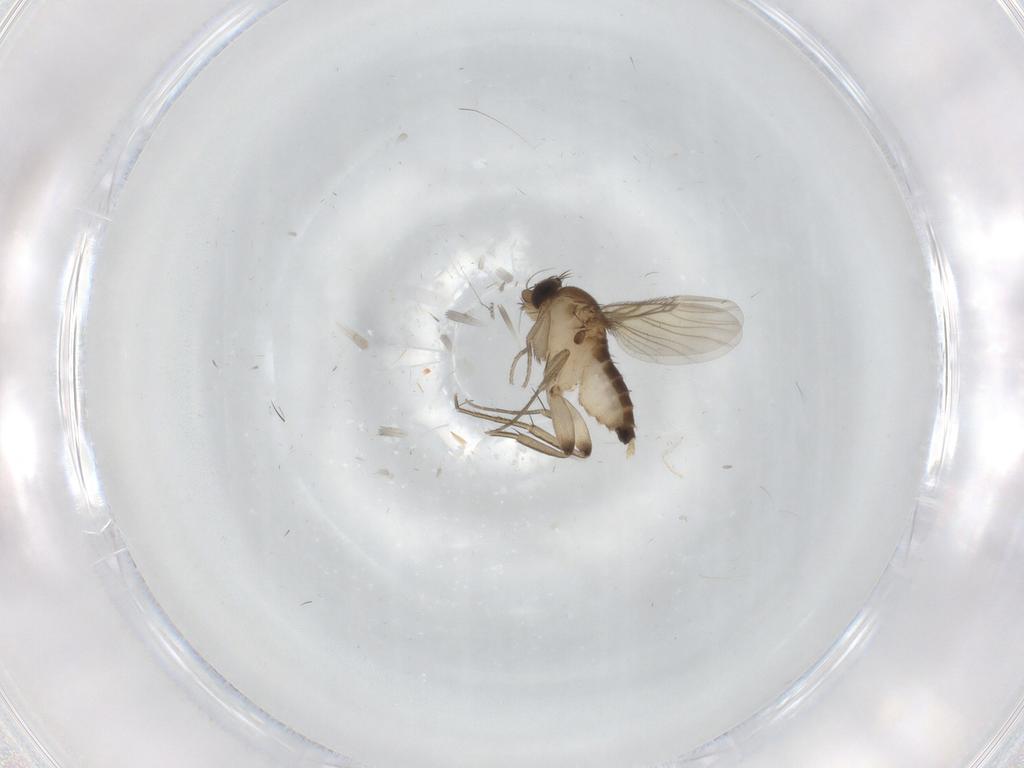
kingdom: Animalia
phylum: Arthropoda
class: Insecta
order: Diptera
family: Phoridae
